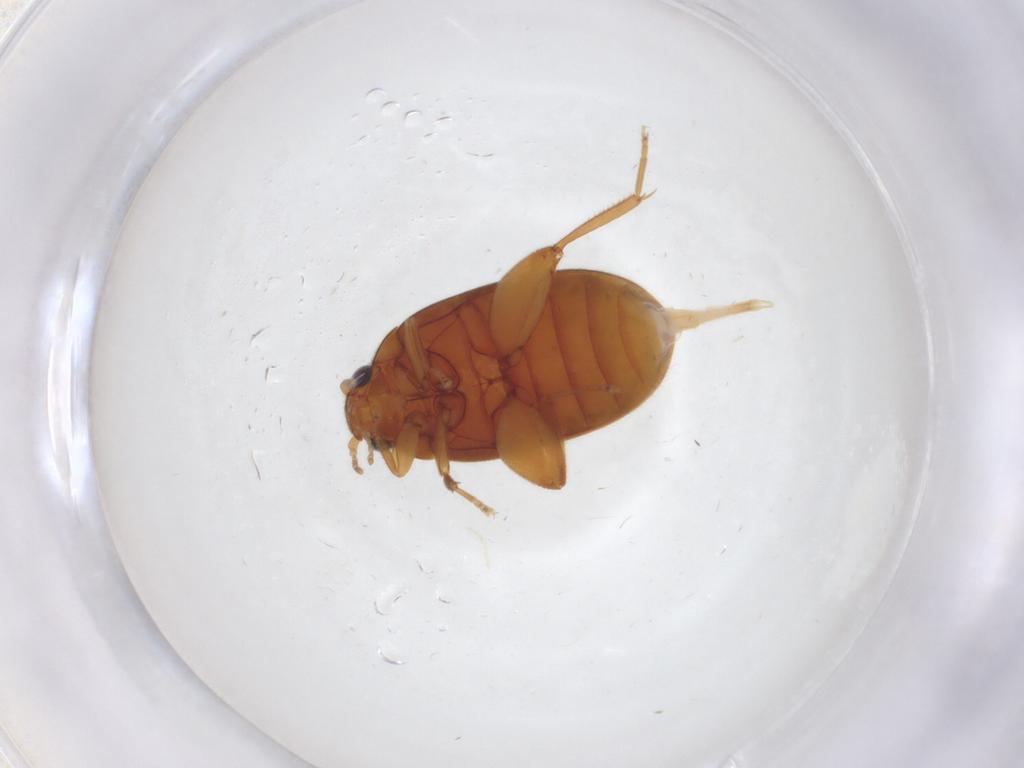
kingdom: Animalia
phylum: Arthropoda
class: Insecta
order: Coleoptera
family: Scirtidae
